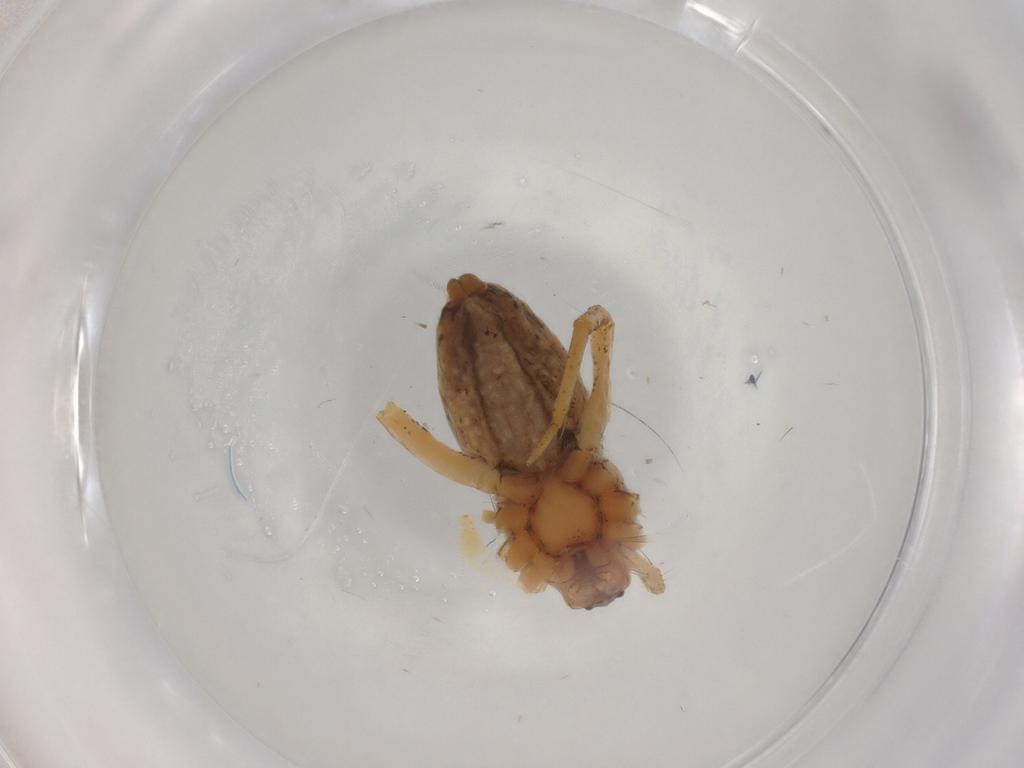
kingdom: Animalia
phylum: Arthropoda
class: Arachnida
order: Araneae
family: Pisauridae
